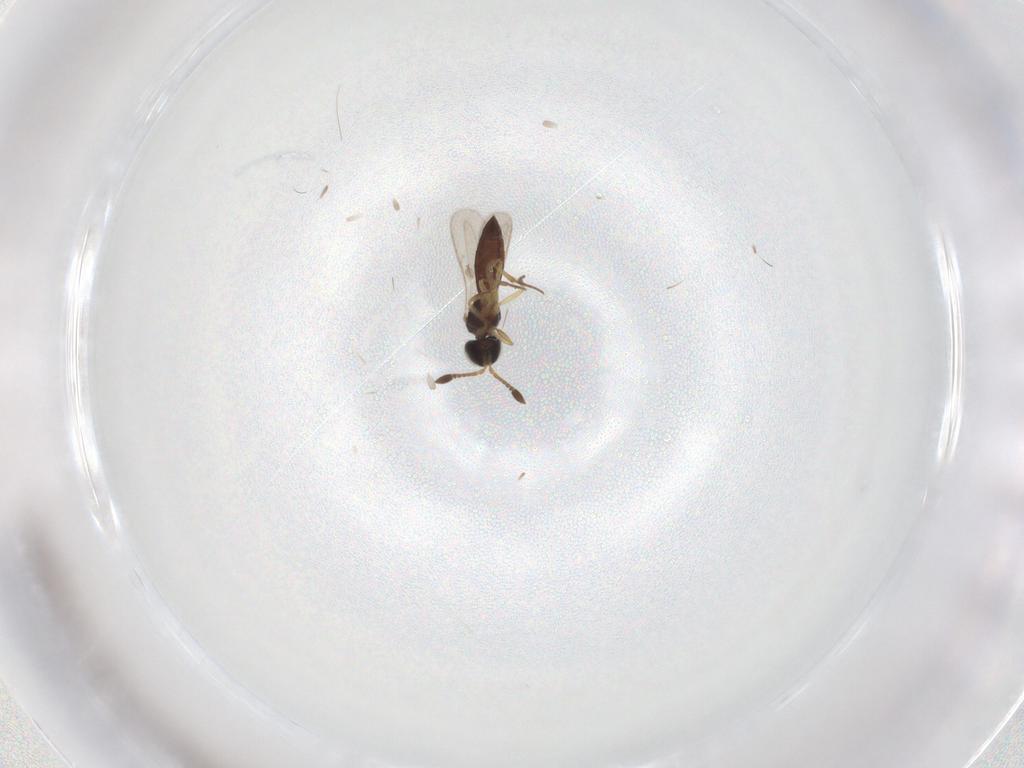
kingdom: Animalia
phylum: Arthropoda
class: Insecta
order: Hymenoptera
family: Scelionidae
